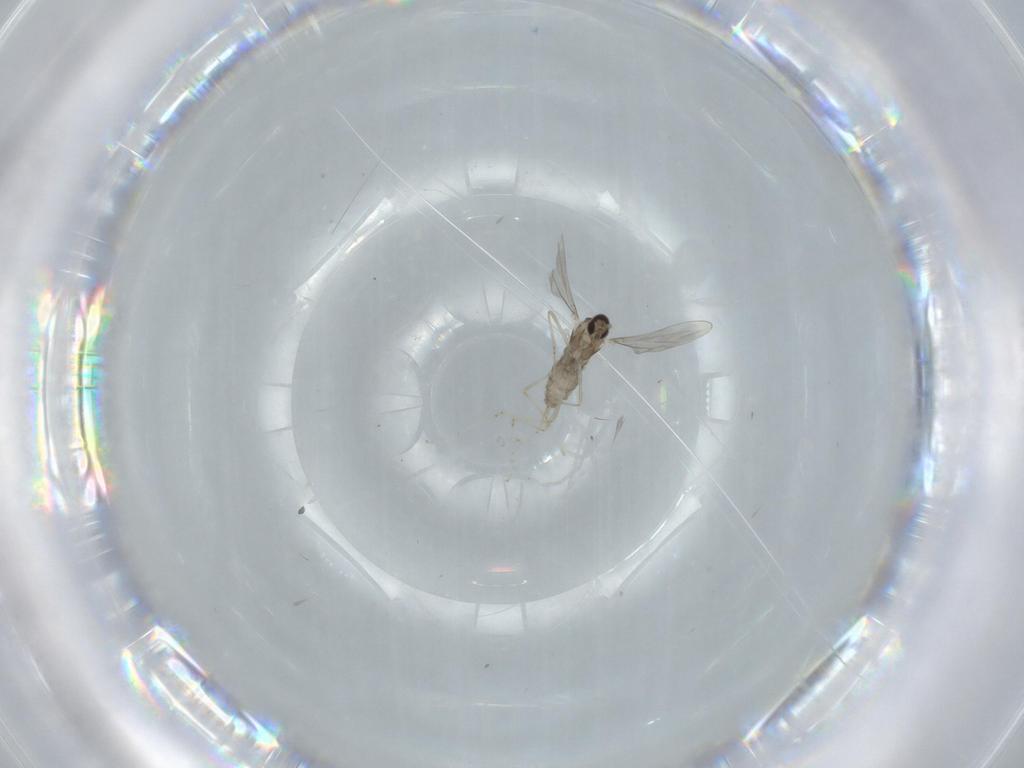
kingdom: Animalia
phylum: Arthropoda
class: Insecta
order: Diptera
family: Cecidomyiidae
